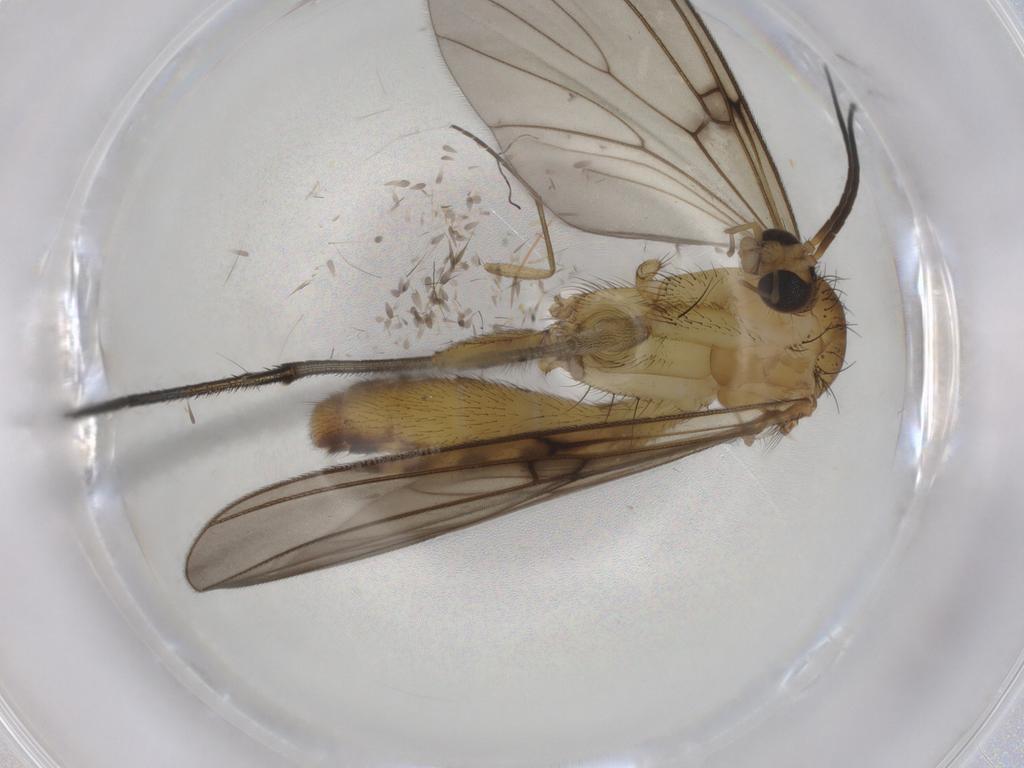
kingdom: Animalia
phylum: Arthropoda
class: Insecta
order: Diptera
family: Mycetophilidae
